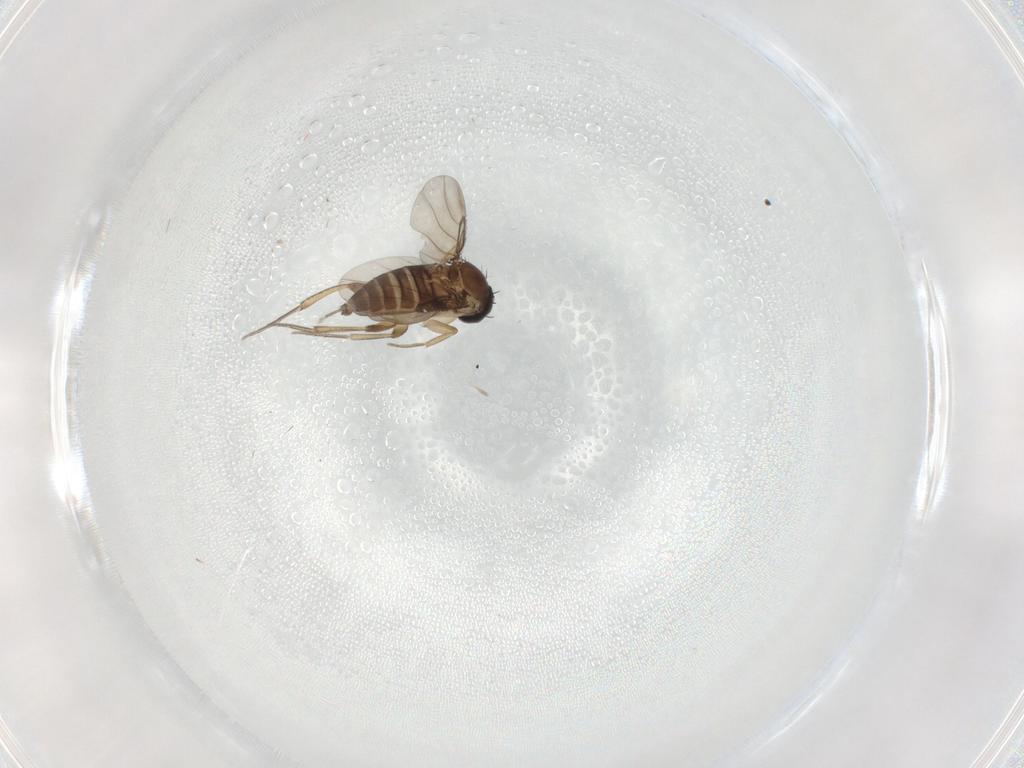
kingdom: Animalia
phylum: Arthropoda
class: Insecta
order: Diptera
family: Phoridae
